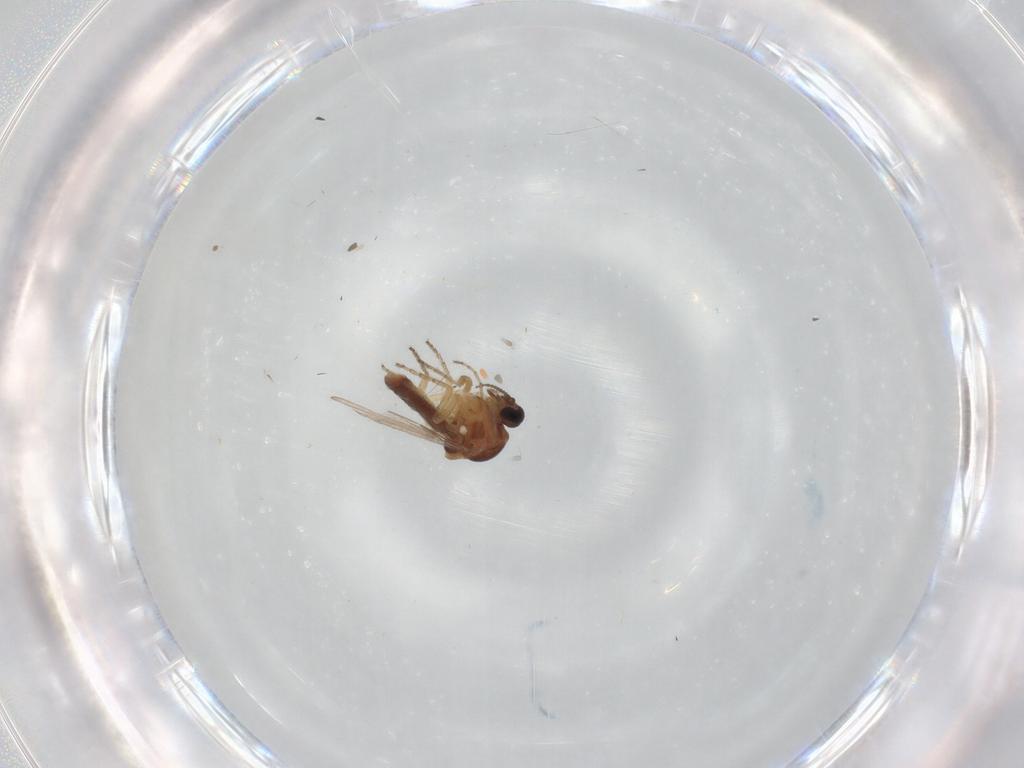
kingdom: Animalia
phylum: Arthropoda
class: Insecta
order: Diptera
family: Ceratopogonidae
